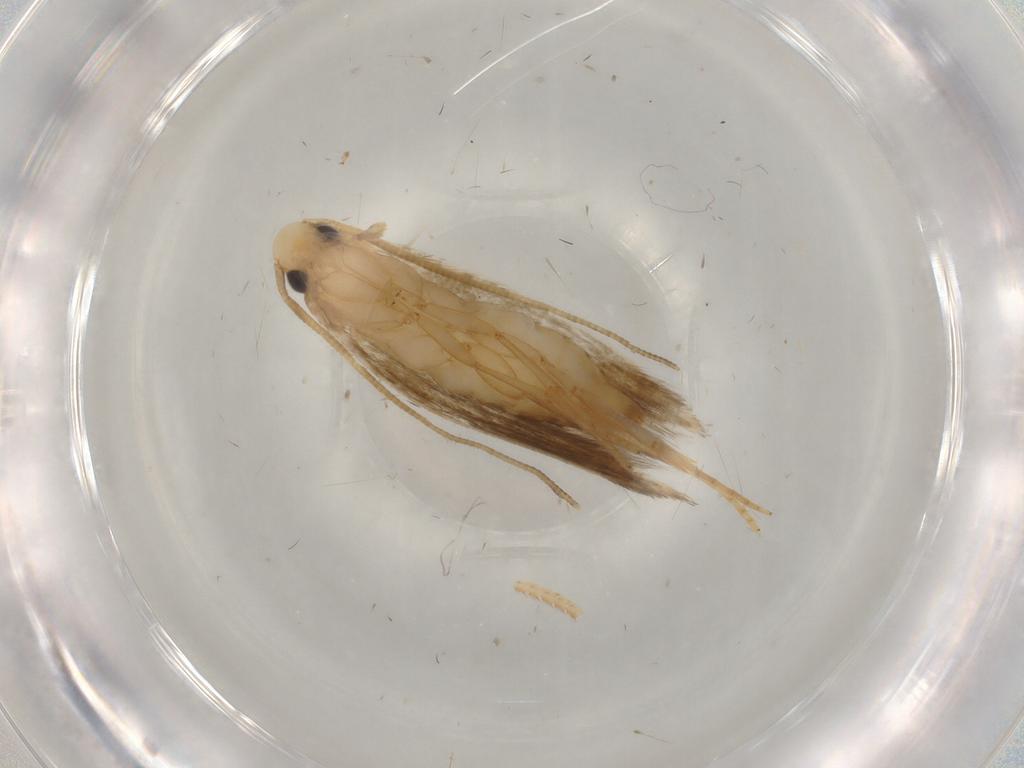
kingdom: Animalia
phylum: Arthropoda
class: Insecta
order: Lepidoptera
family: Tineidae
